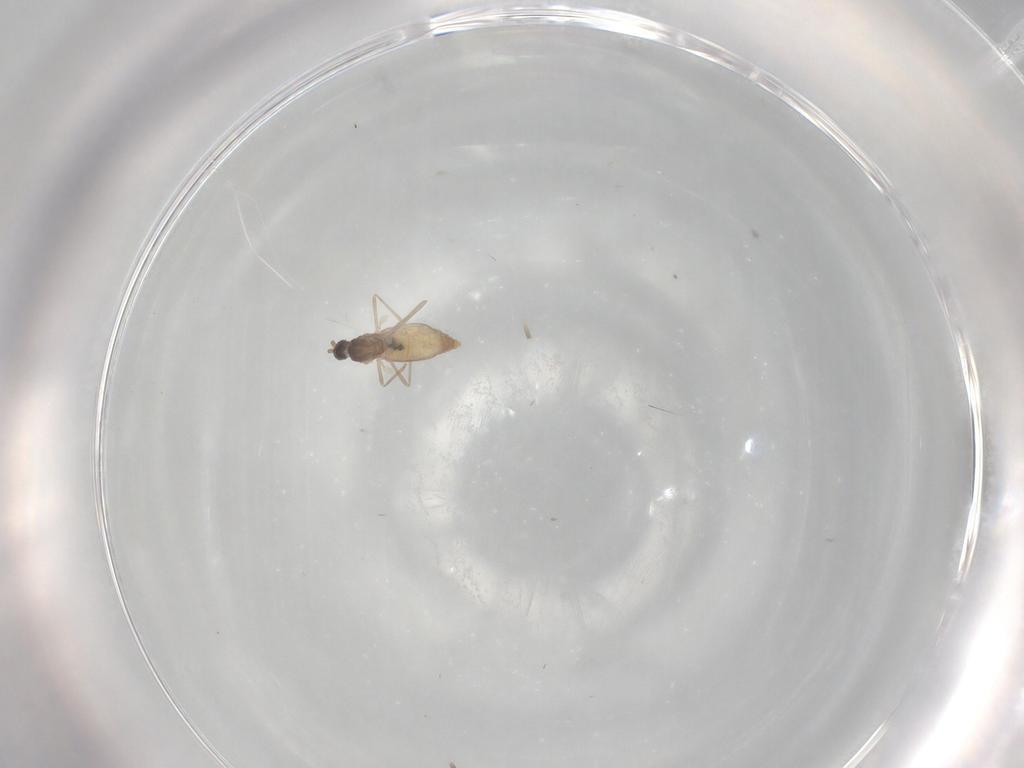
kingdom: Animalia
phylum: Arthropoda
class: Insecta
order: Diptera
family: Cecidomyiidae
